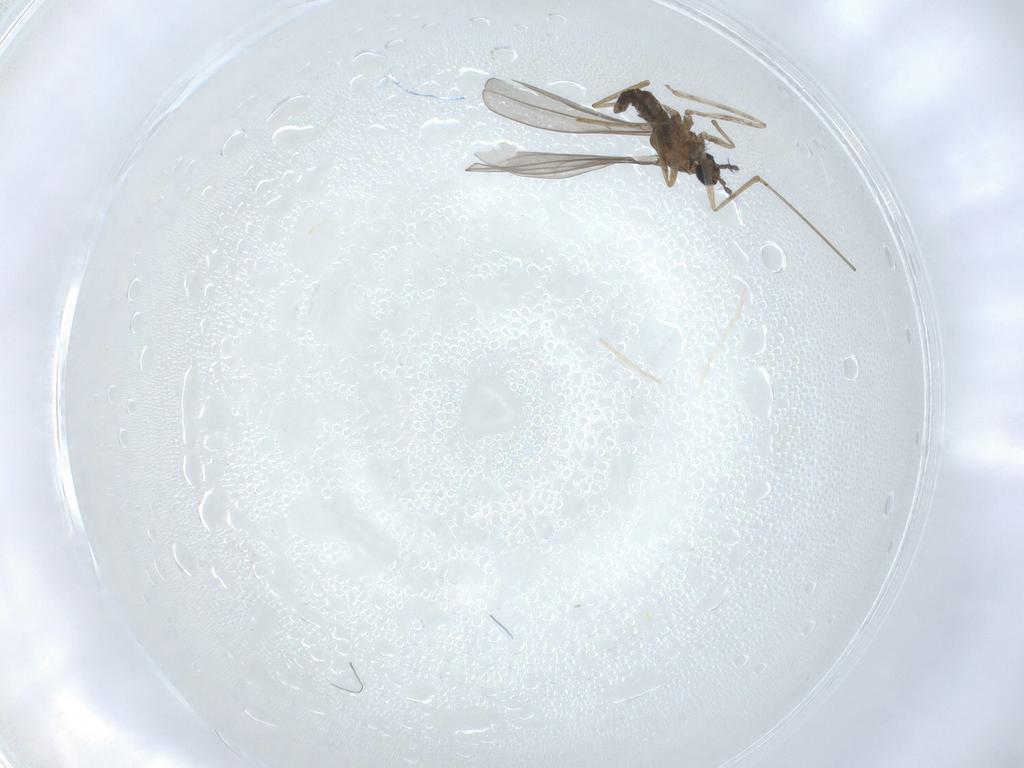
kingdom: Animalia
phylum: Arthropoda
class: Insecta
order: Diptera
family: Cecidomyiidae
